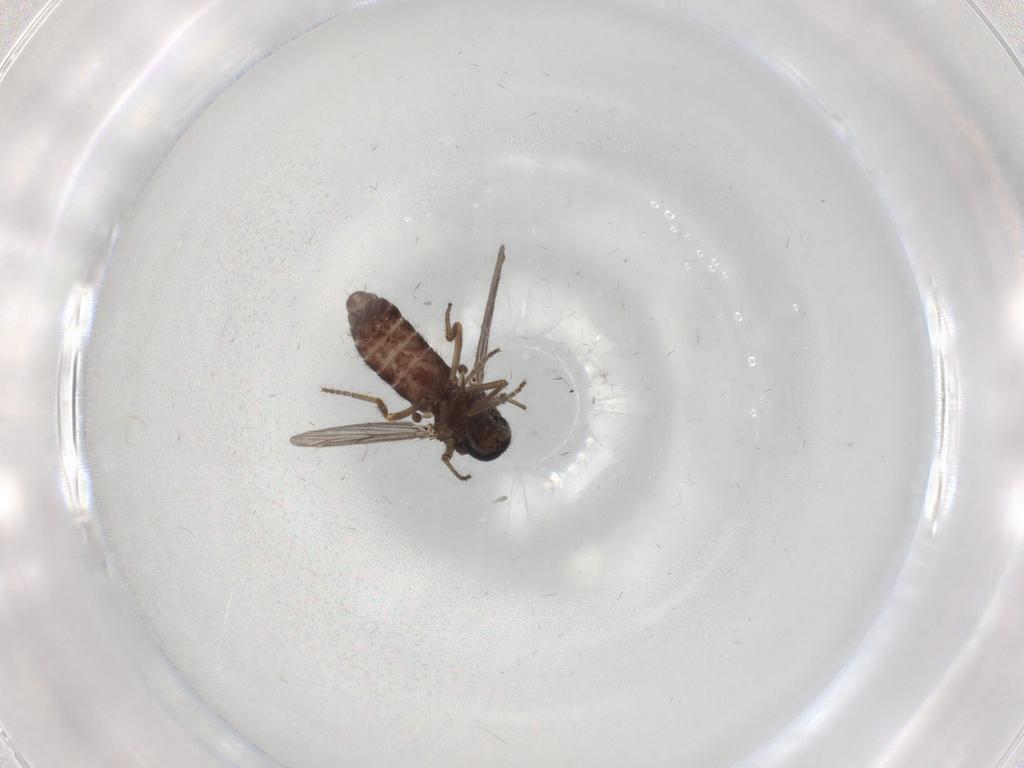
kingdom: Animalia
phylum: Arthropoda
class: Insecta
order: Diptera
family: Ceratopogonidae
